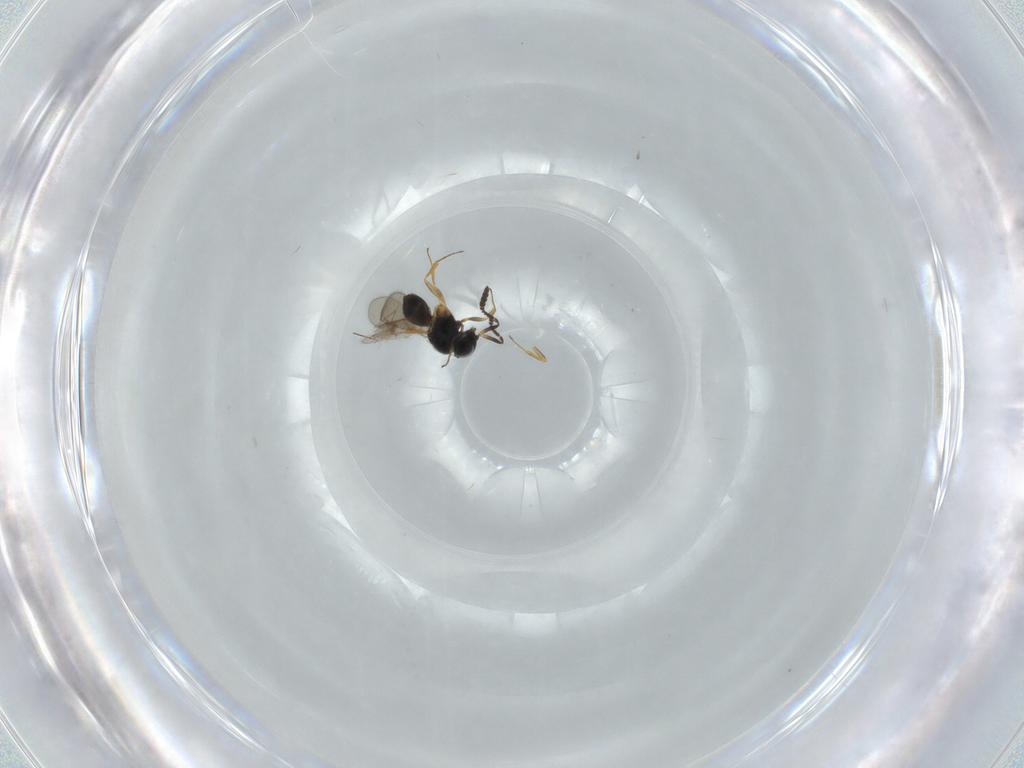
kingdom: Animalia
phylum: Arthropoda
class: Insecta
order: Hymenoptera
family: Scelionidae
